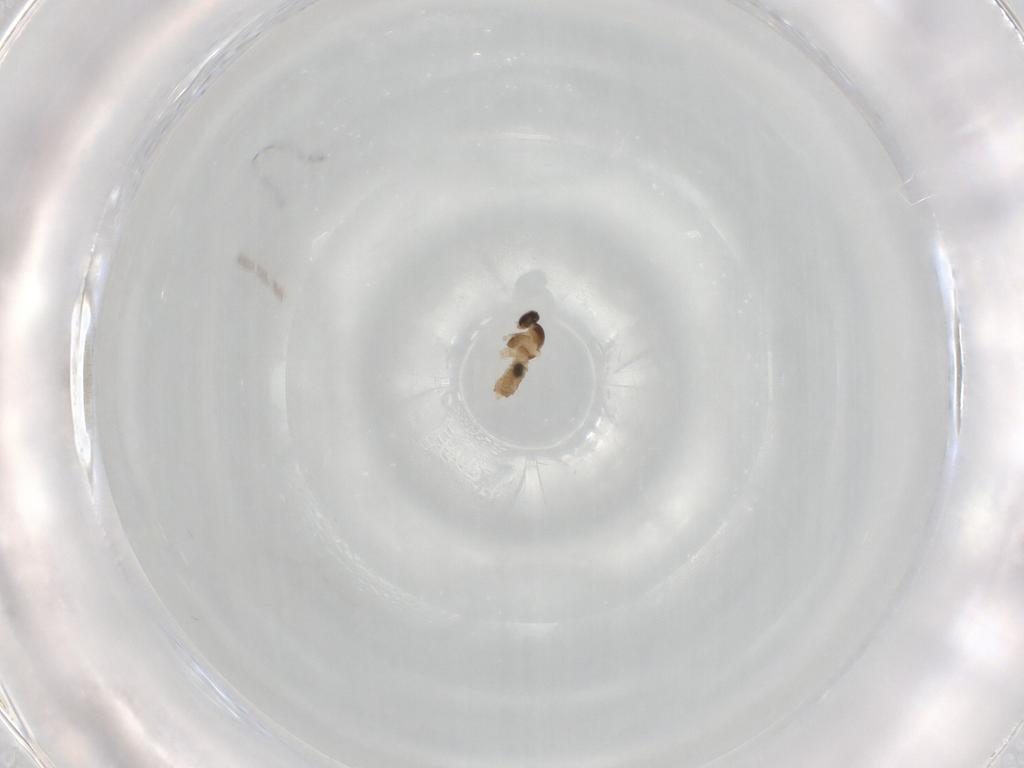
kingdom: Animalia
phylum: Arthropoda
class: Insecta
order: Diptera
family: Cecidomyiidae
